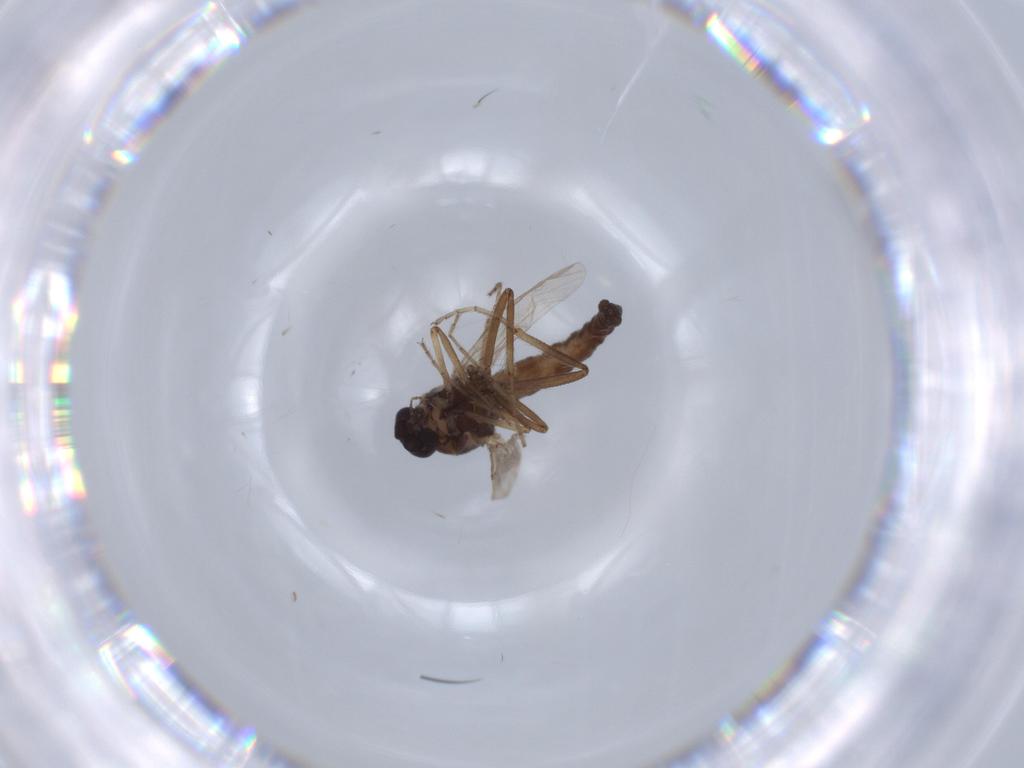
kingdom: Animalia
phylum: Arthropoda
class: Insecta
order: Diptera
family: Ceratopogonidae
